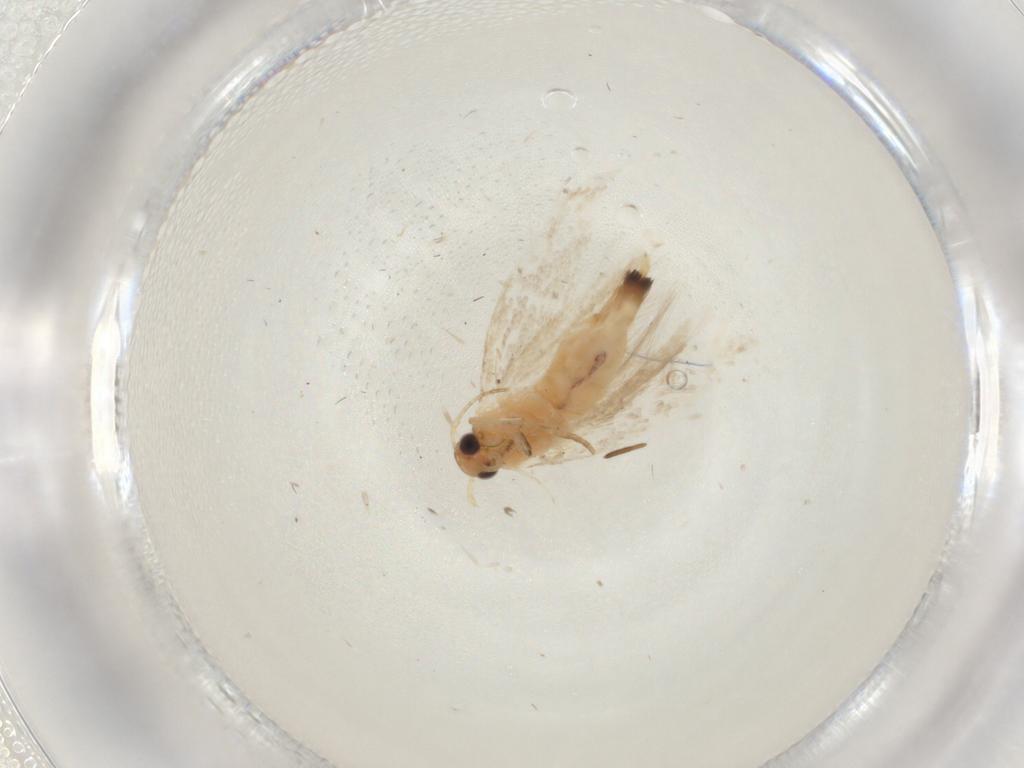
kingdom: Animalia
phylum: Arthropoda
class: Insecta
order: Lepidoptera
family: Gelechiidae
